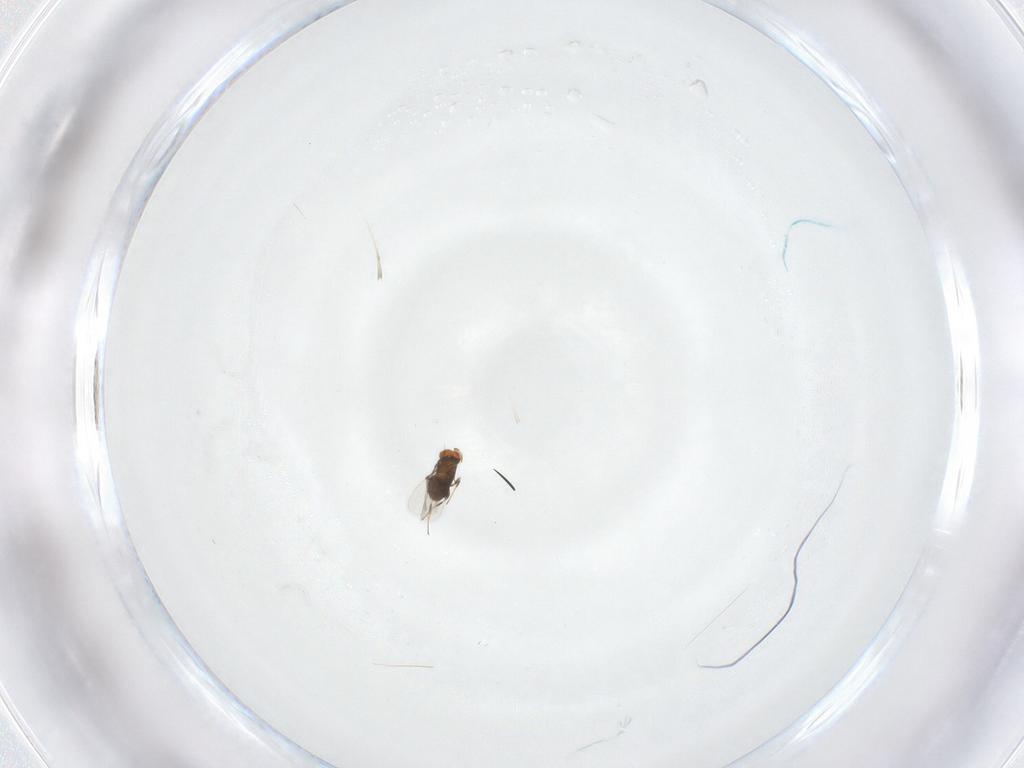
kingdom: Animalia
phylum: Arthropoda
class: Insecta
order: Hymenoptera
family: Trichogrammatidae
